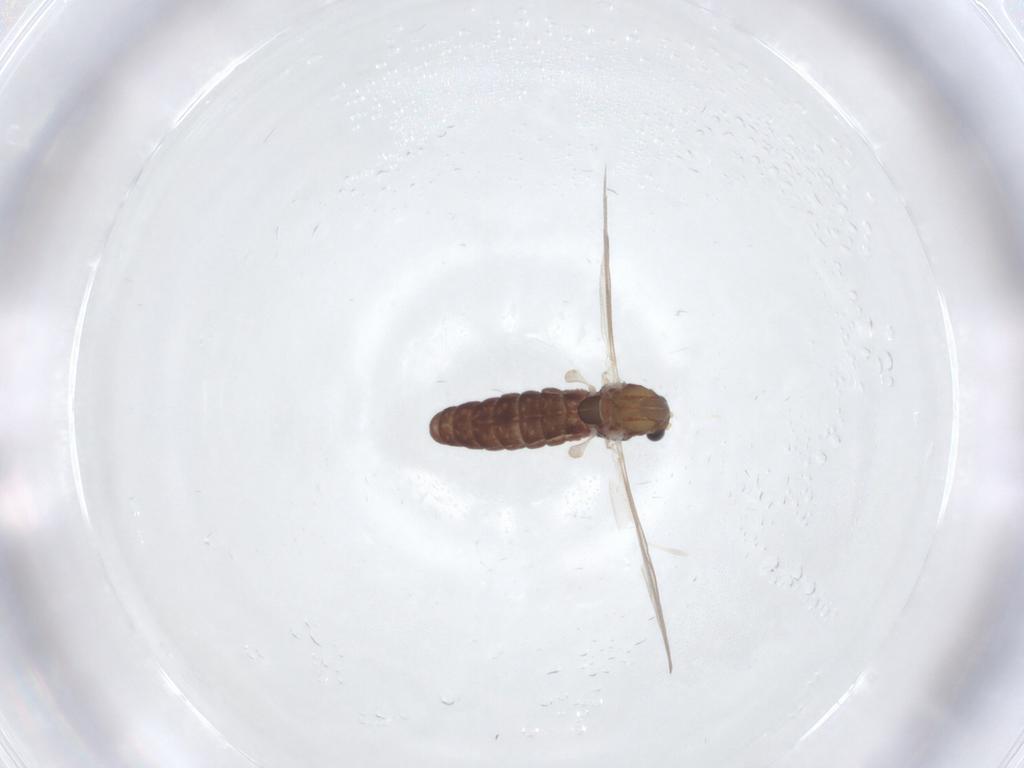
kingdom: Animalia
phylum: Arthropoda
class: Insecta
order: Diptera
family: Chironomidae
